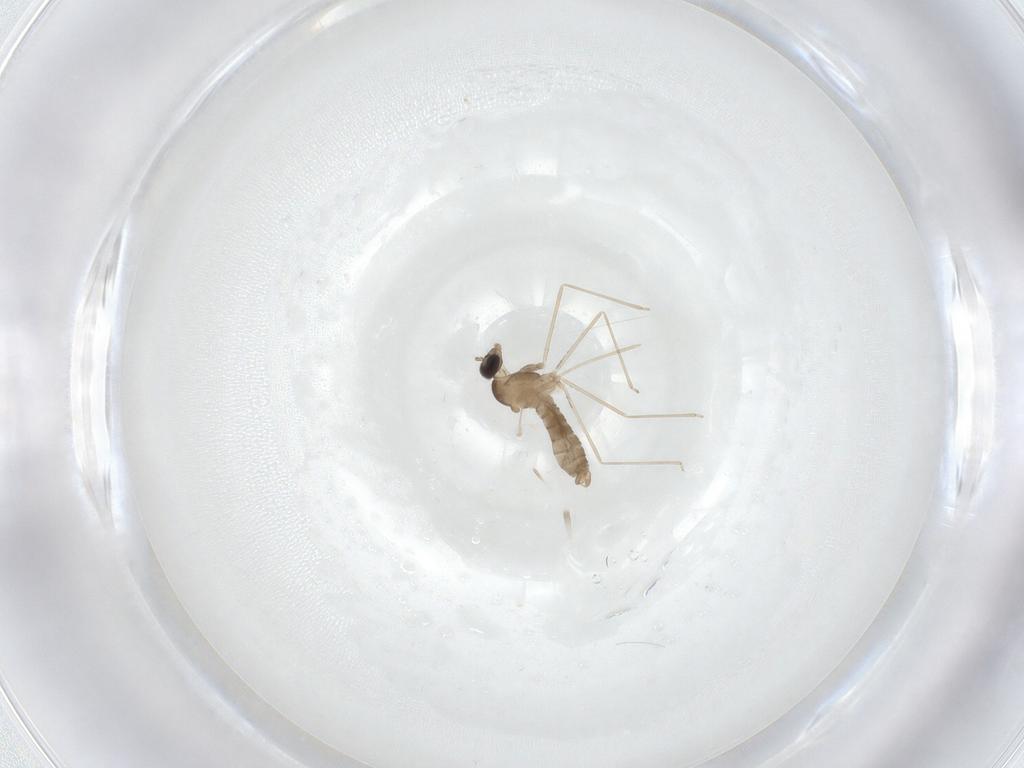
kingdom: Animalia
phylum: Arthropoda
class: Insecta
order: Diptera
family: Cecidomyiidae
